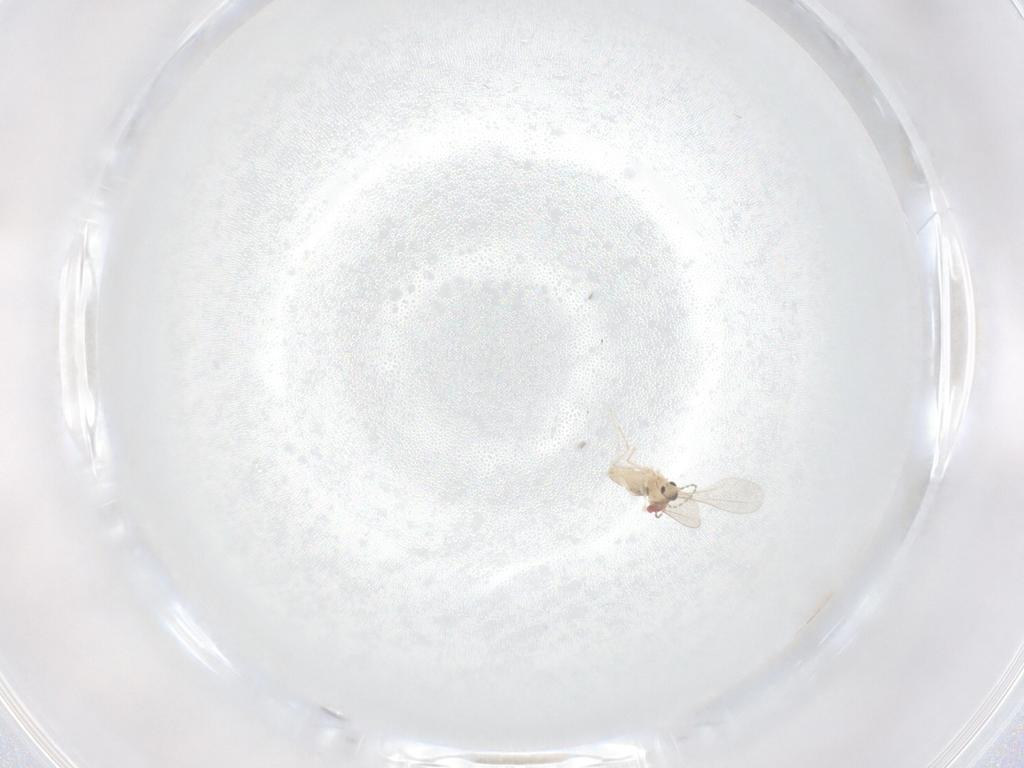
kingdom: Animalia
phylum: Arthropoda
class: Insecta
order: Diptera
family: Cecidomyiidae
